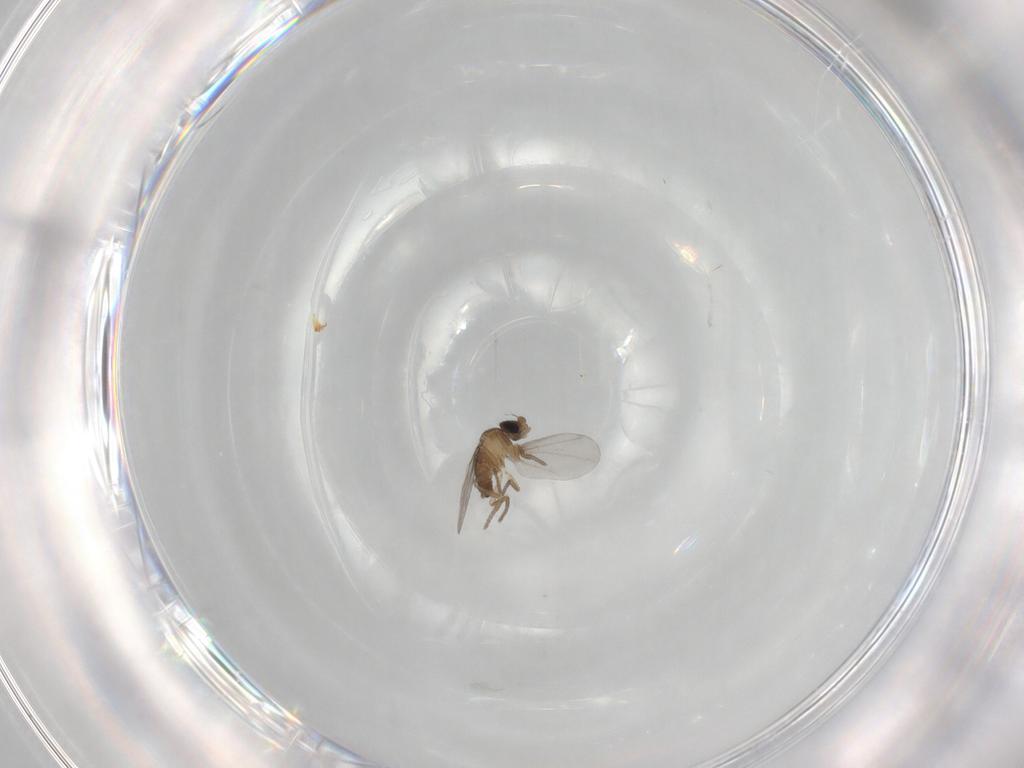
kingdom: Animalia
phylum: Arthropoda
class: Insecta
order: Diptera
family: Phoridae
